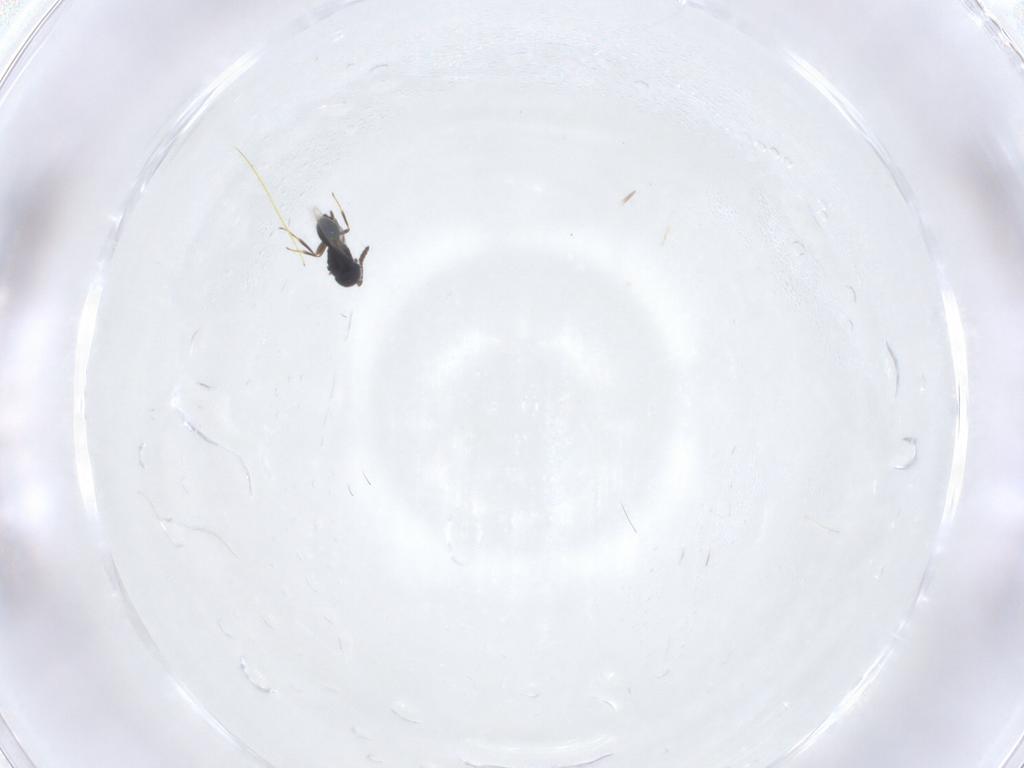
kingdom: Animalia
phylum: Arthropoda
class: Insecta
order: Hymenoptera
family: Scelionidae
